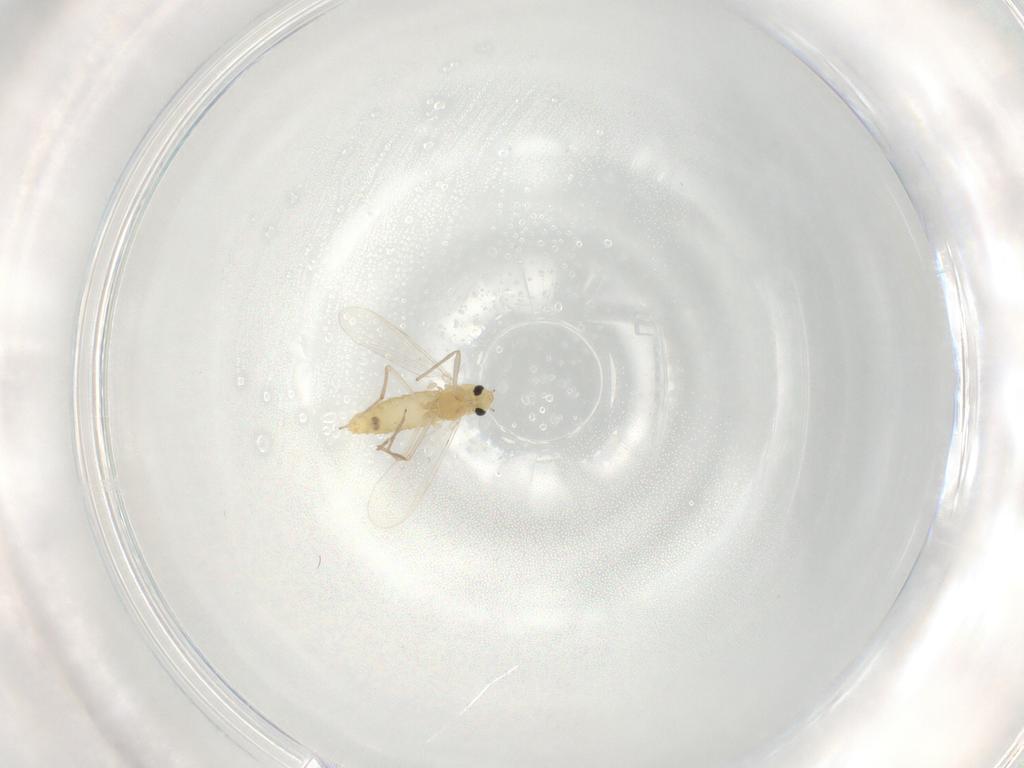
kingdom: Animalia
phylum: Arthropoda
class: Insecta
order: Diptera
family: Chironomidae
